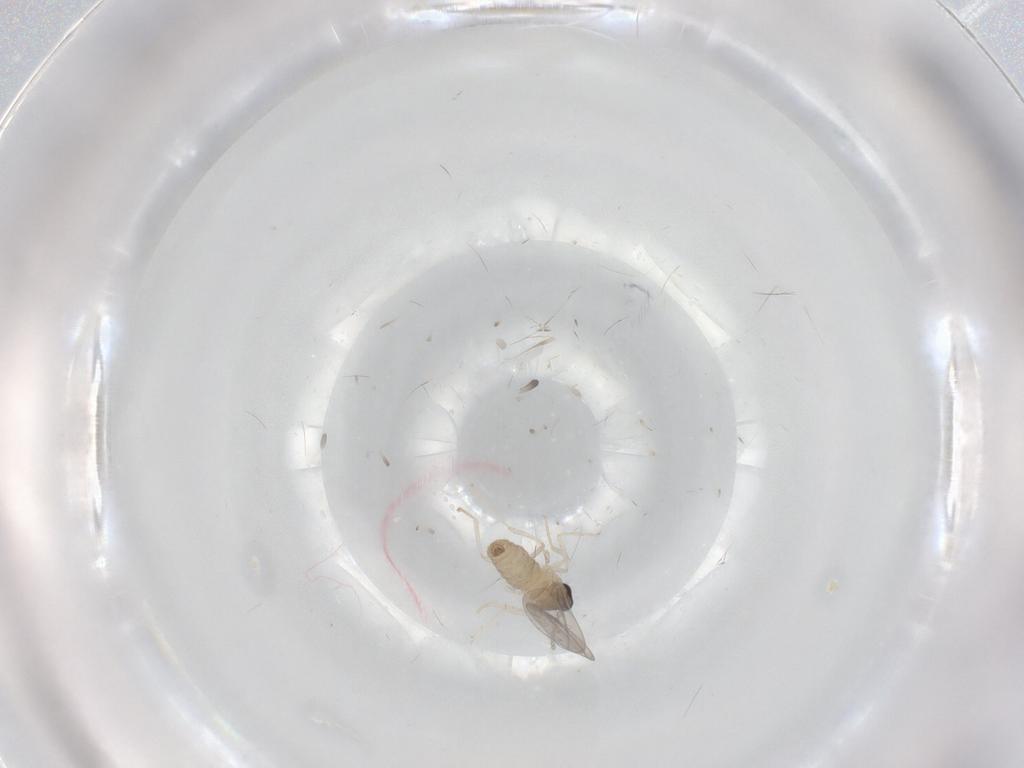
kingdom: Animalia
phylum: Arthropoda
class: Insecta
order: Diptera
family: Cecidomyiidae
